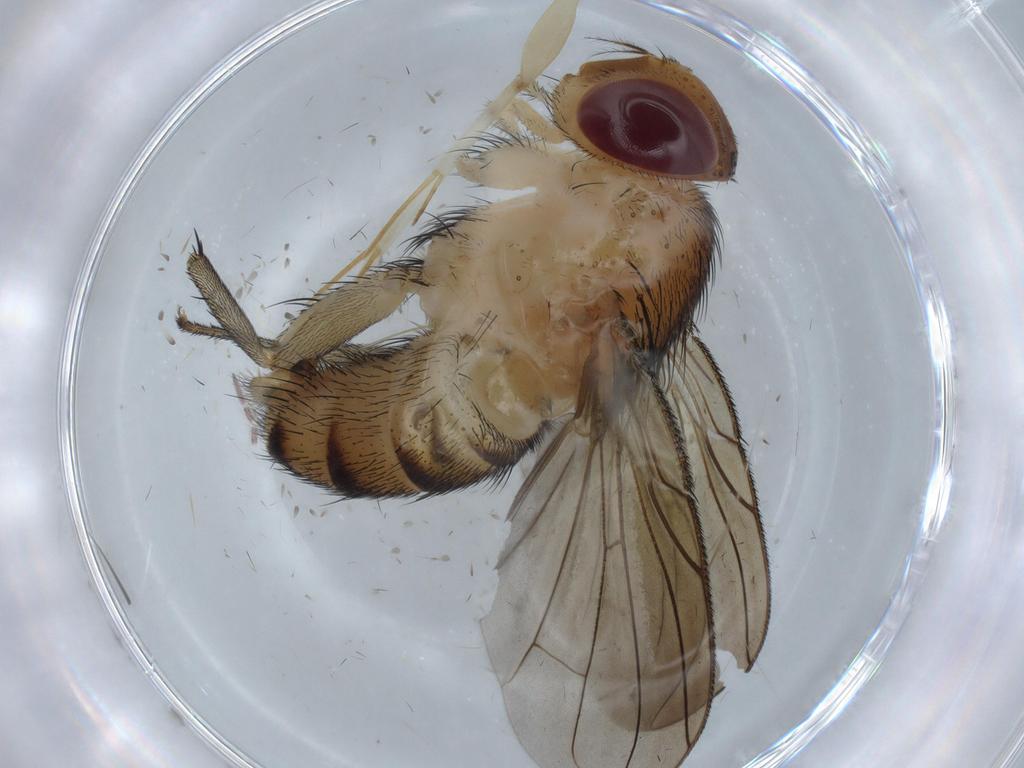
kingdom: Animalia
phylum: Arthropoda
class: Insecta
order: Diptera
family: Calliphoridae
